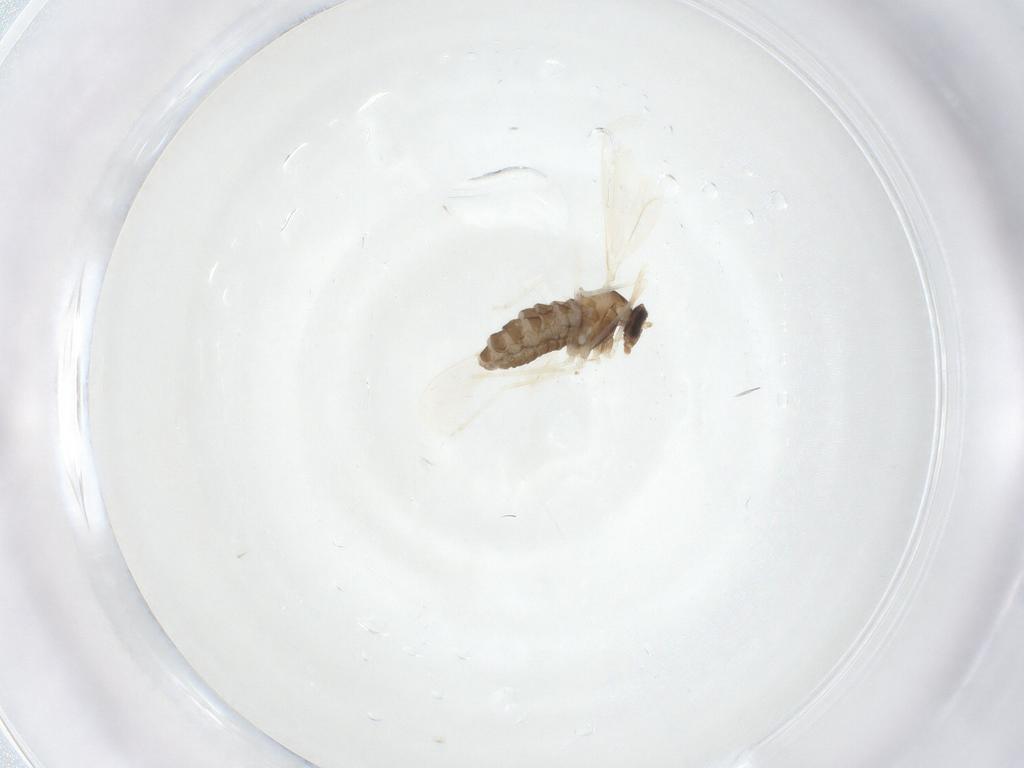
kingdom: Animalia
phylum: Arthropoda
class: Insecta
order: Diptera
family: Cecidomyiidae
